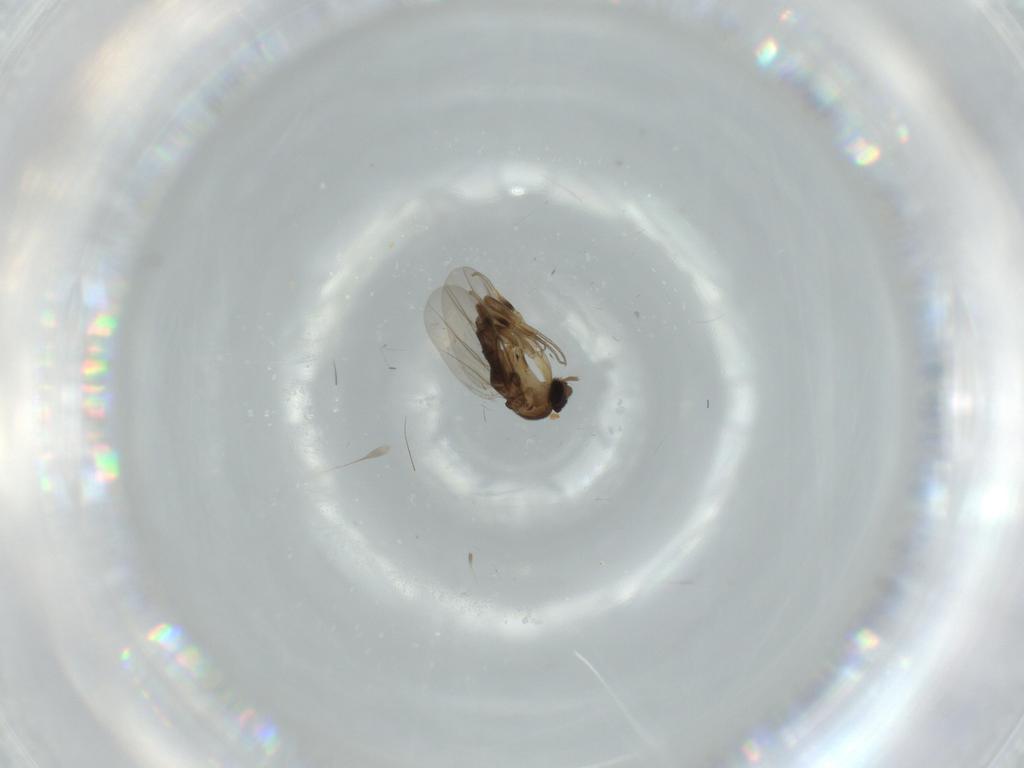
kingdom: Animalia
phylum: Arthropoda
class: Insecta
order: Diptera
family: Phoridae
